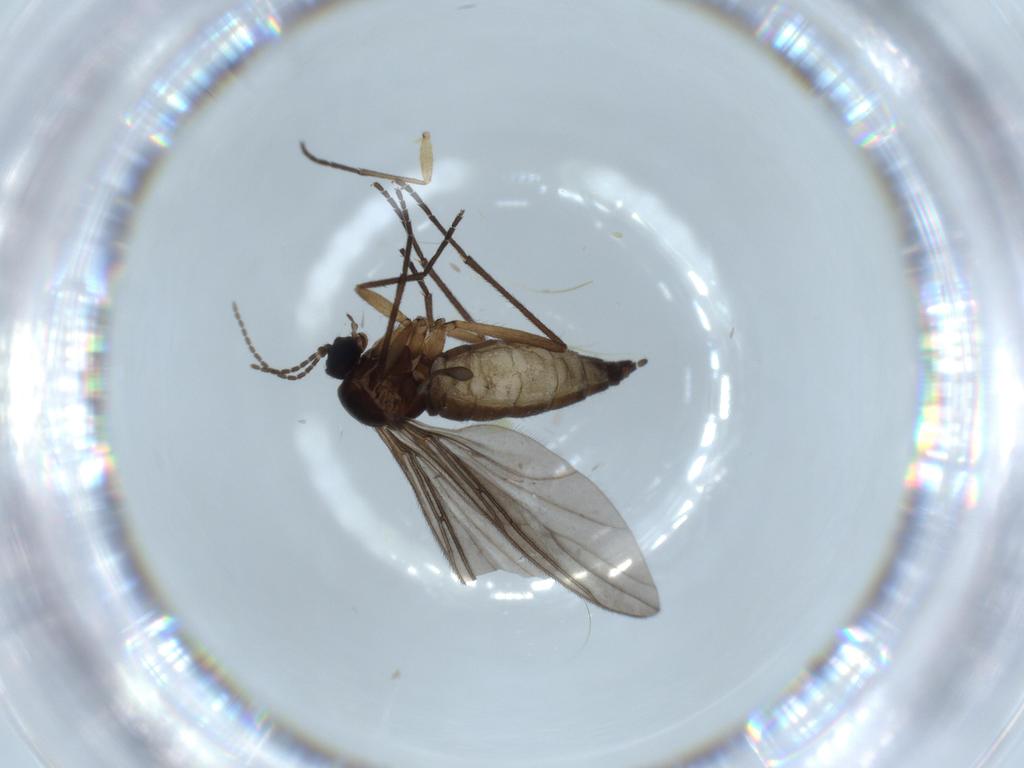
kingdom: Animalia
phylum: Arthropoda
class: Insecta
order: Diptera
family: Sciaridae
